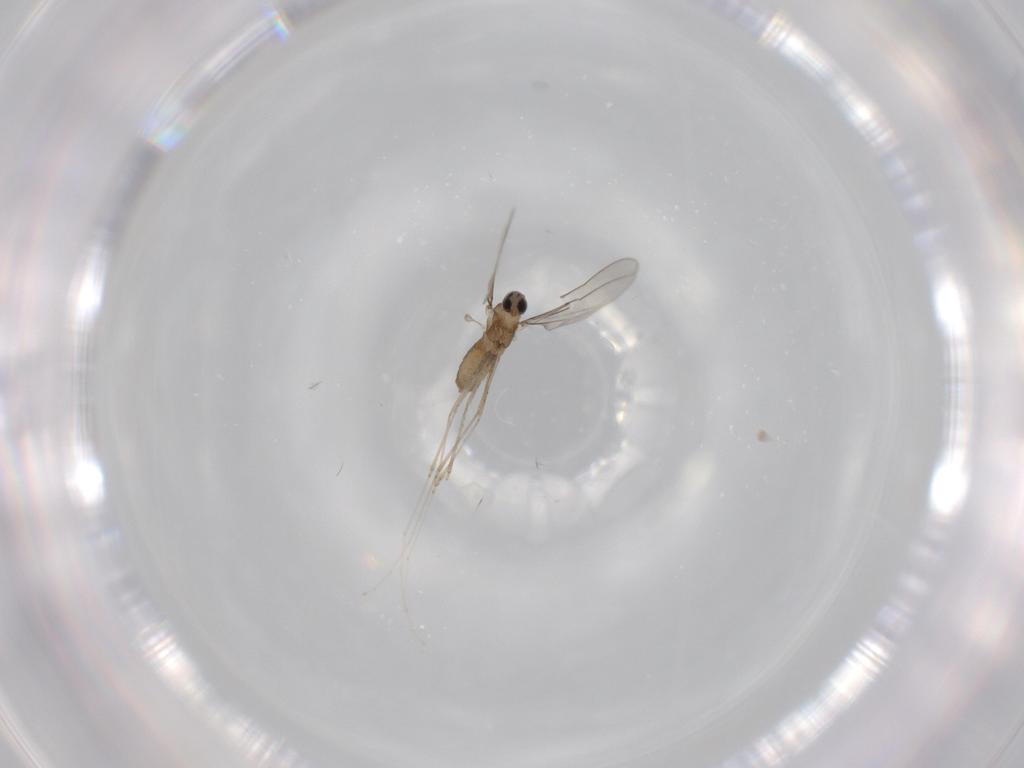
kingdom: Animalia
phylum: Arthropoda
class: Insecta
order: Diptera
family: Cecidomyiidae
